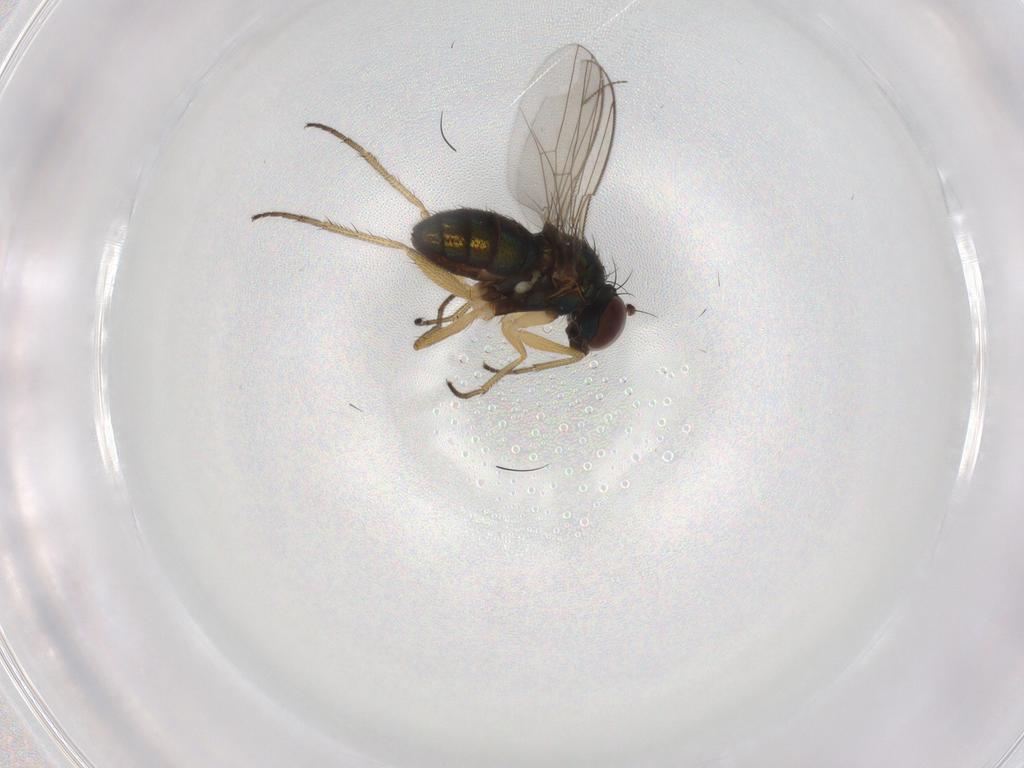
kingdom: Animalia
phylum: Arthropoda
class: Insecta
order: Diptera
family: Ceratopogonidae
